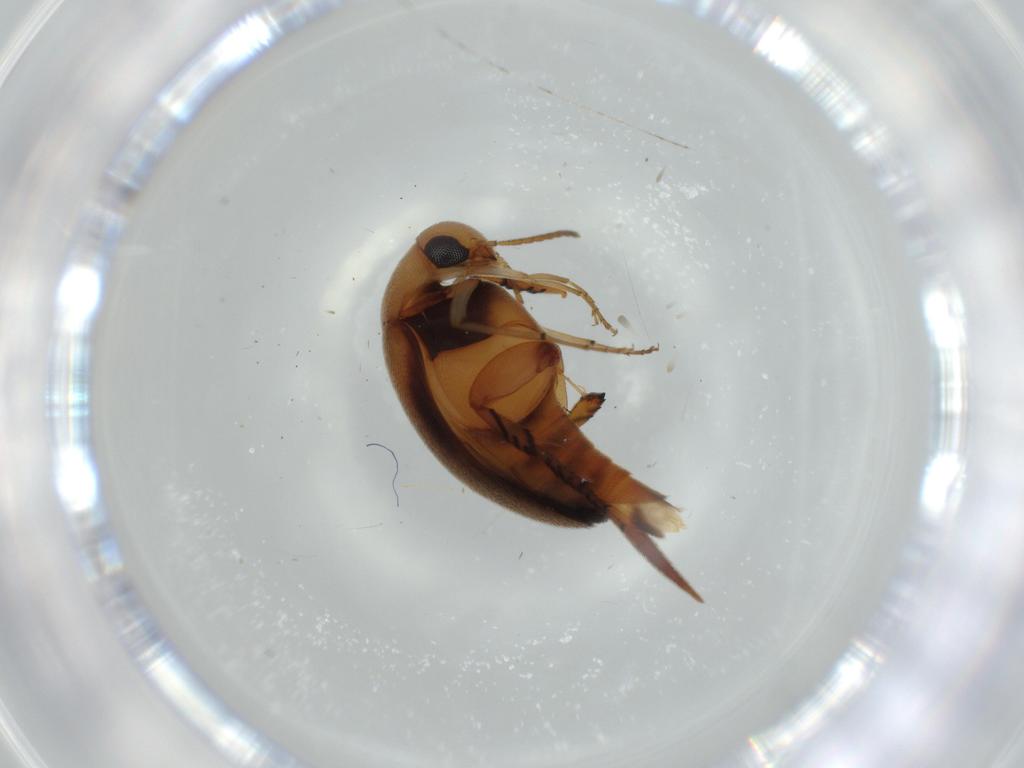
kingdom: Animalia
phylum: Arthropoda
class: Insecta
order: Coleoptera
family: Mordellidae
